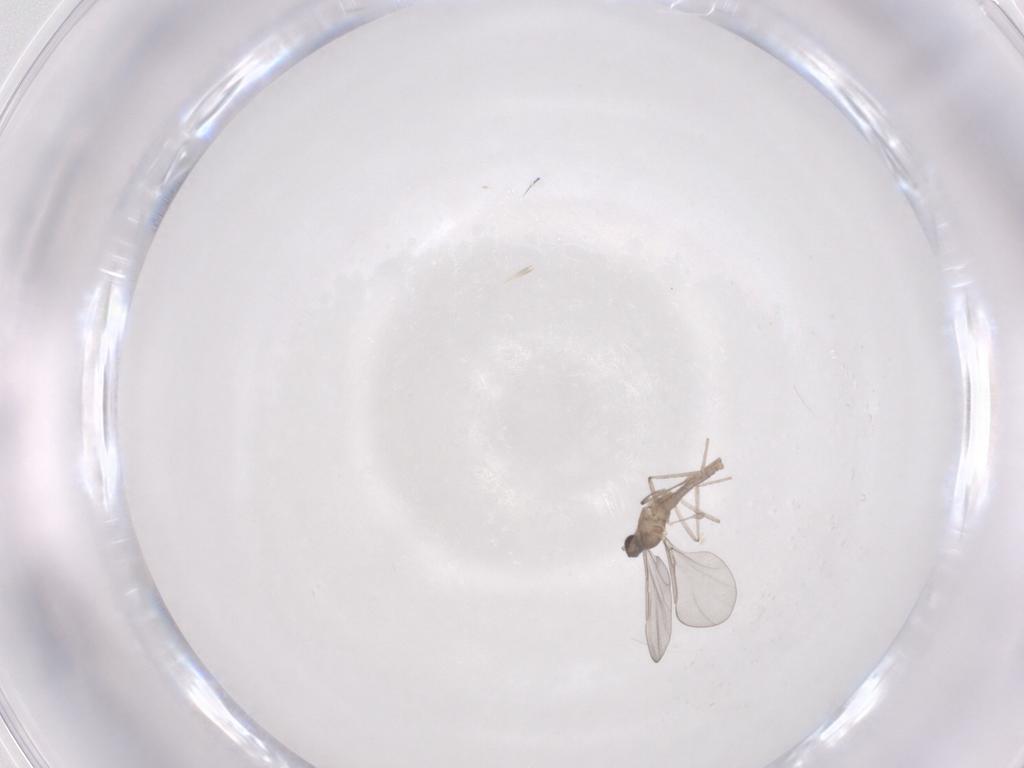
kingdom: Animalia
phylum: Arthropoda
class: Insecta
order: Diptera
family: Cecidomyiidae
